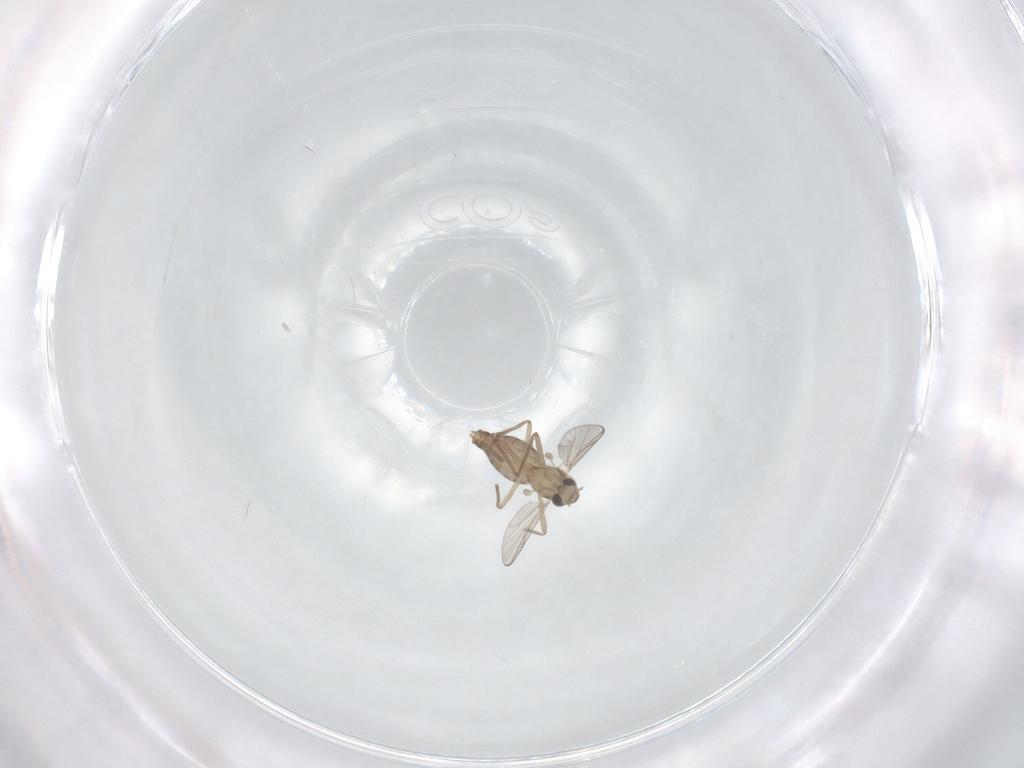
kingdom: Animalia
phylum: Arthropoda
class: Insecta
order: Diptera
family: Chironomidae
